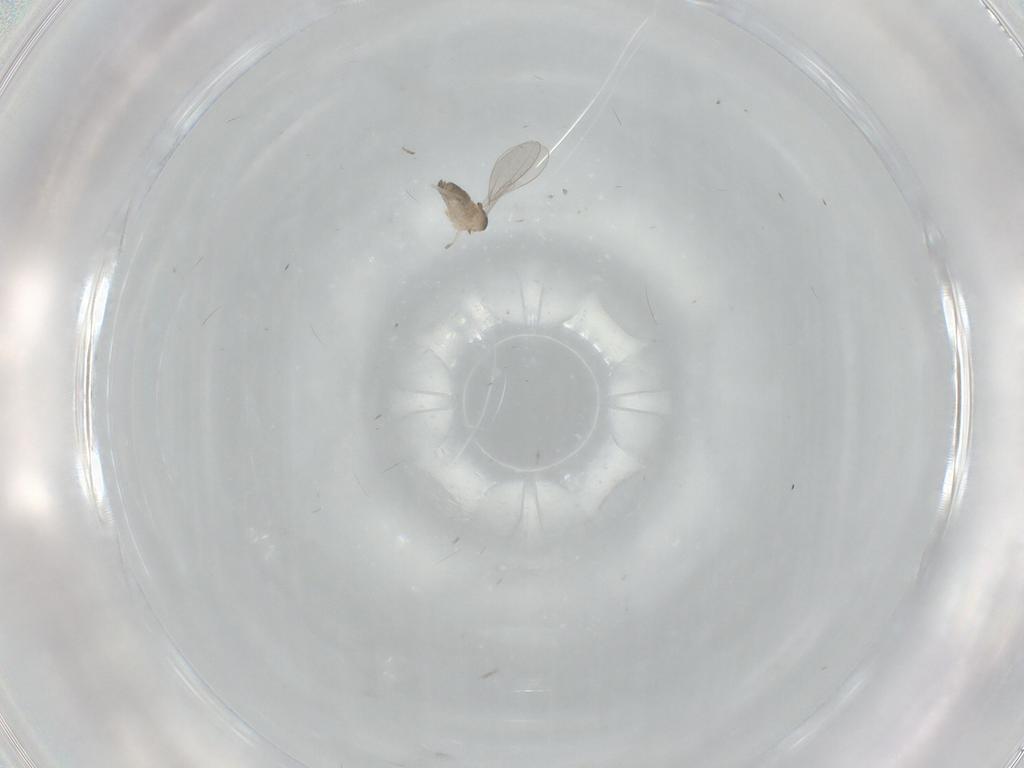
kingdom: Animalia
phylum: Arthropoda
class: Insecta
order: Diptera
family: Cecidomyiidae
